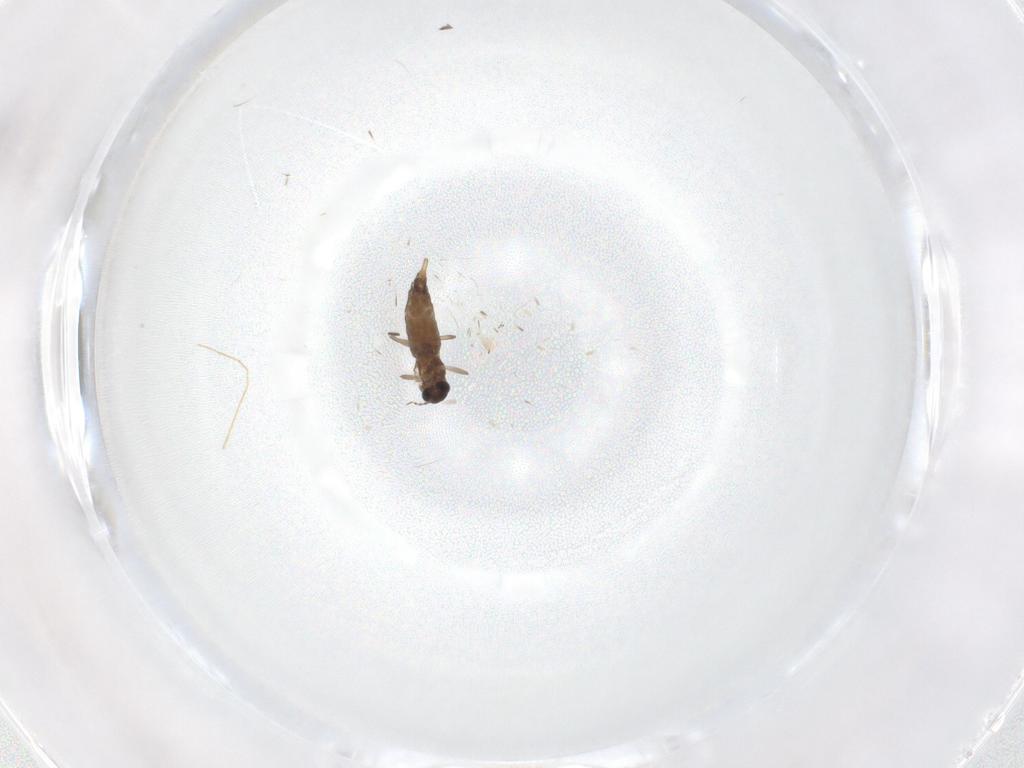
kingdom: Animalia
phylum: Arthropoda
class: Insecta
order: Diptera
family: Chironomidae
